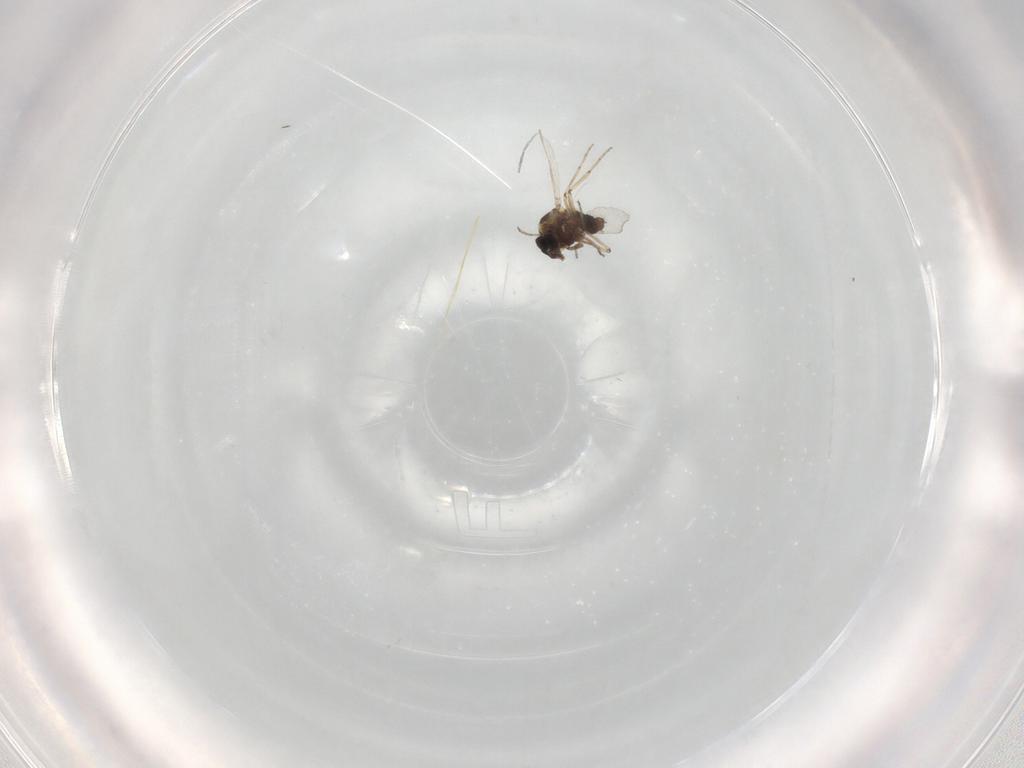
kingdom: Animalia
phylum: Arthropoda
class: Insecta
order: Diptera
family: Ceratopogonidae
